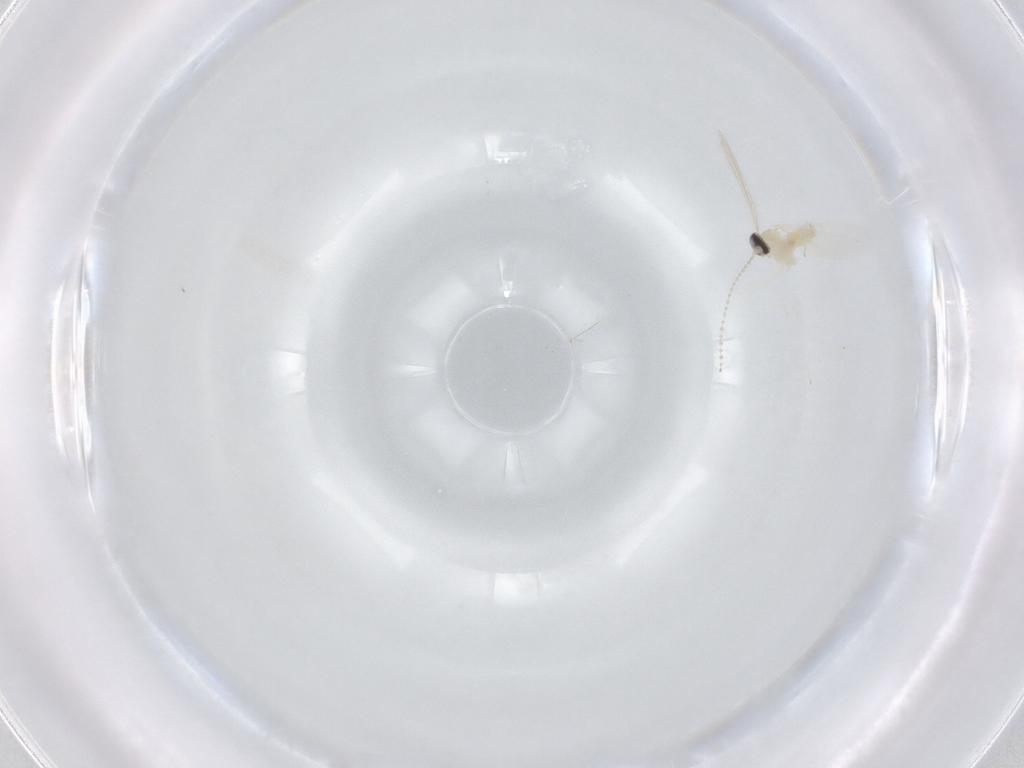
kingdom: Animalia
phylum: Arthropoda
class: Insecta
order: Diptera
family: Cecidomyiidae
